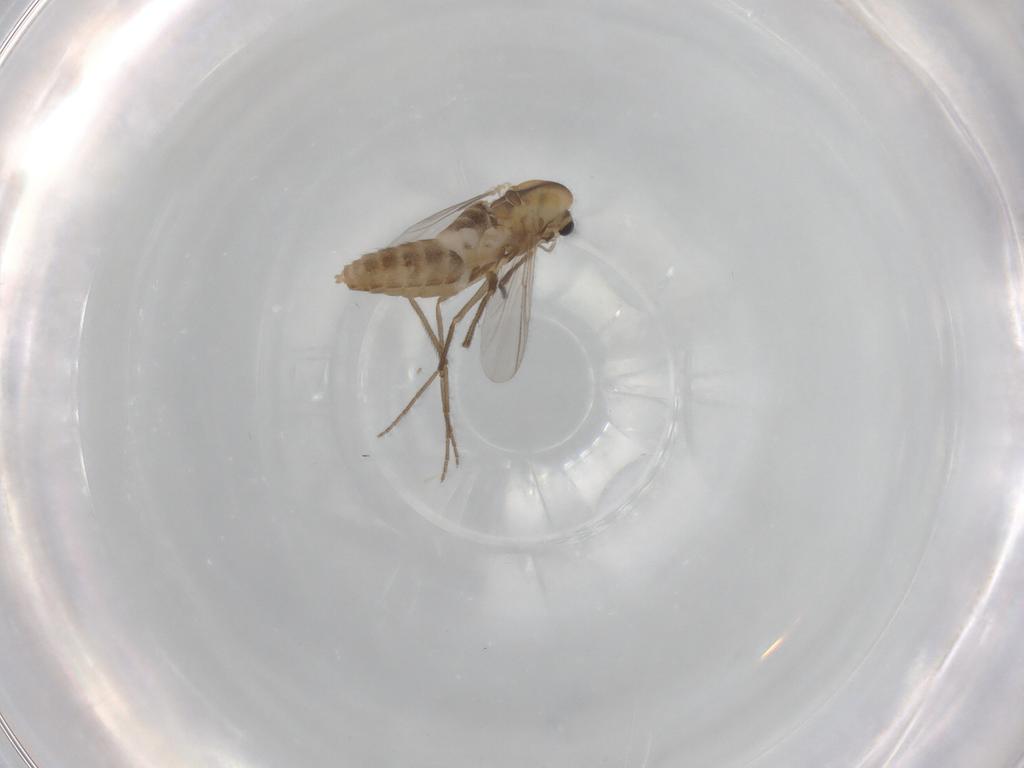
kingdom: Animalia
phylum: Arthropoda
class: Insecta
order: Diptera
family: Chironomidae
